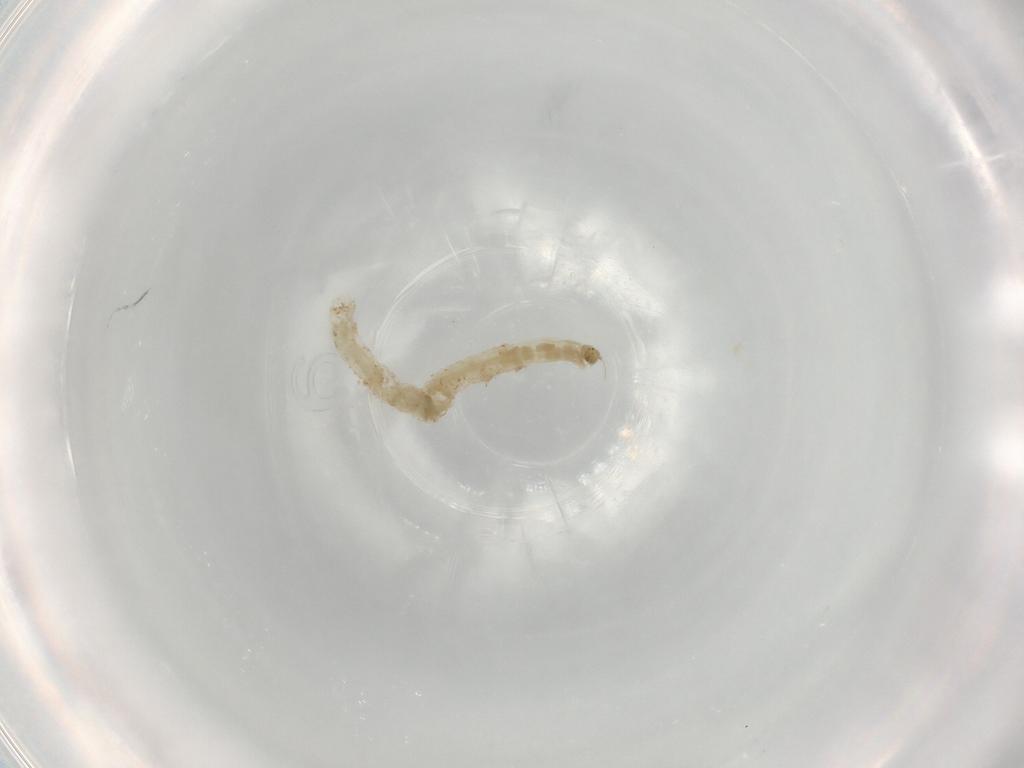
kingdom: Animalia
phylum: Arthropoda
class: Insecta
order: Diptera
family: Chironomidae
